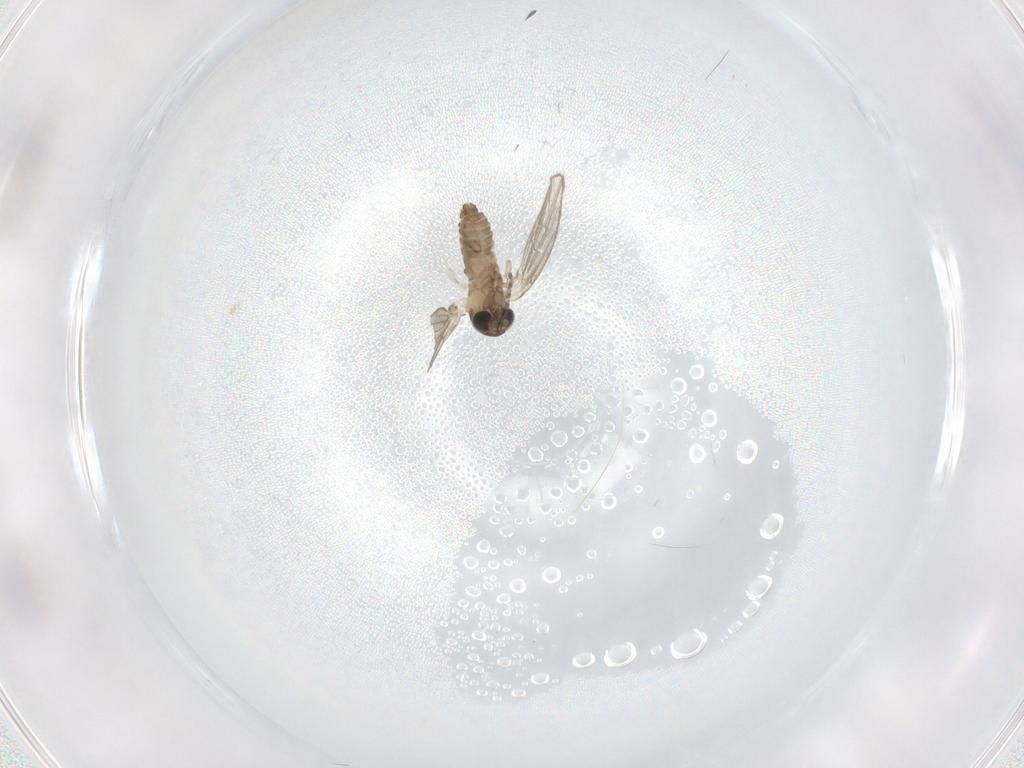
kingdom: Animalia
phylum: Arthropoda
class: Insecta
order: Diptera
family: Psychodidae
